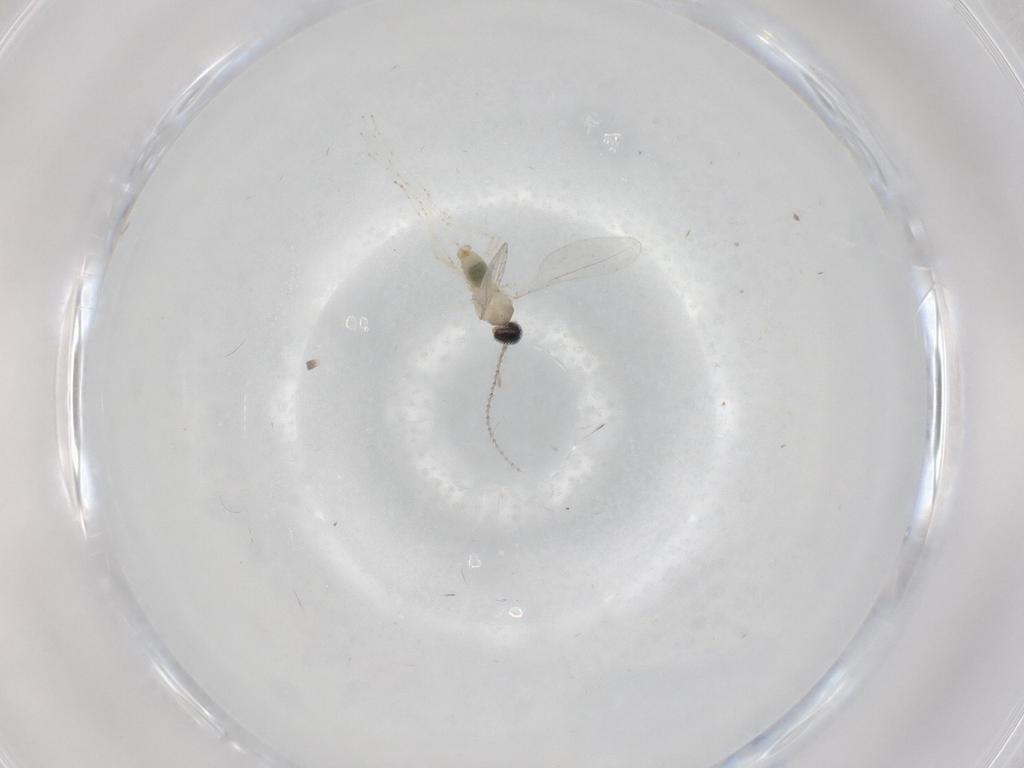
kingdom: Animalia
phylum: Arthropoda
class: Insecta
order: Diptera
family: Cecidomyiidae
